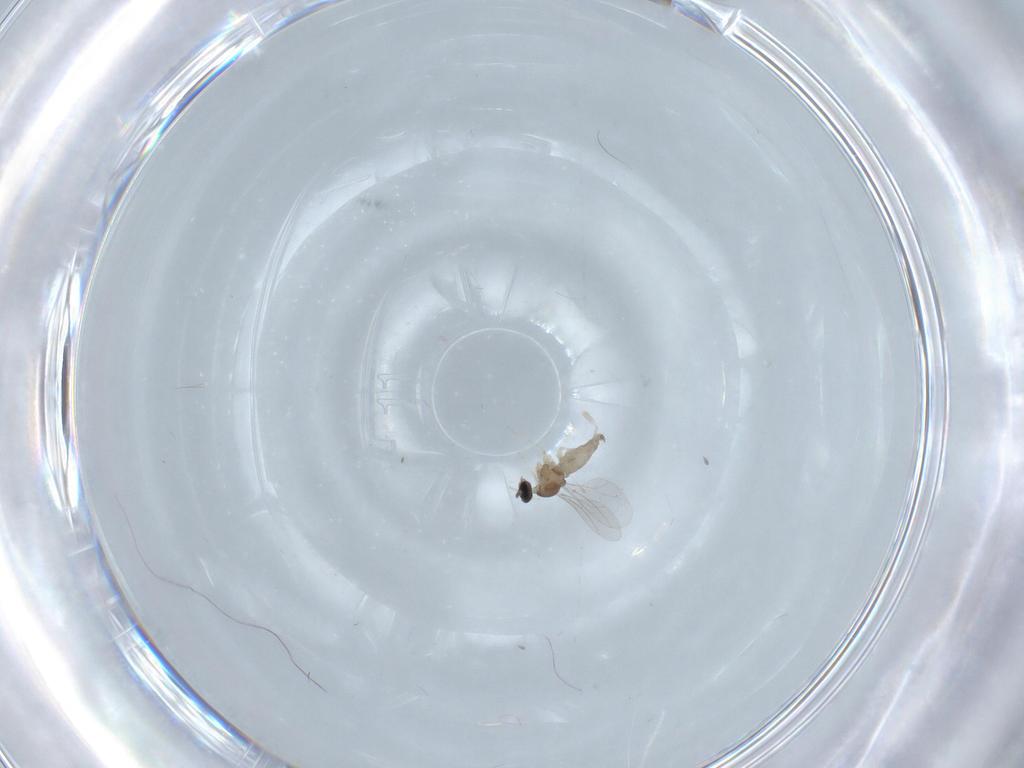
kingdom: Animalia
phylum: Arthropoda
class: Insecta
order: Diptera
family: Cecidomyiidae
